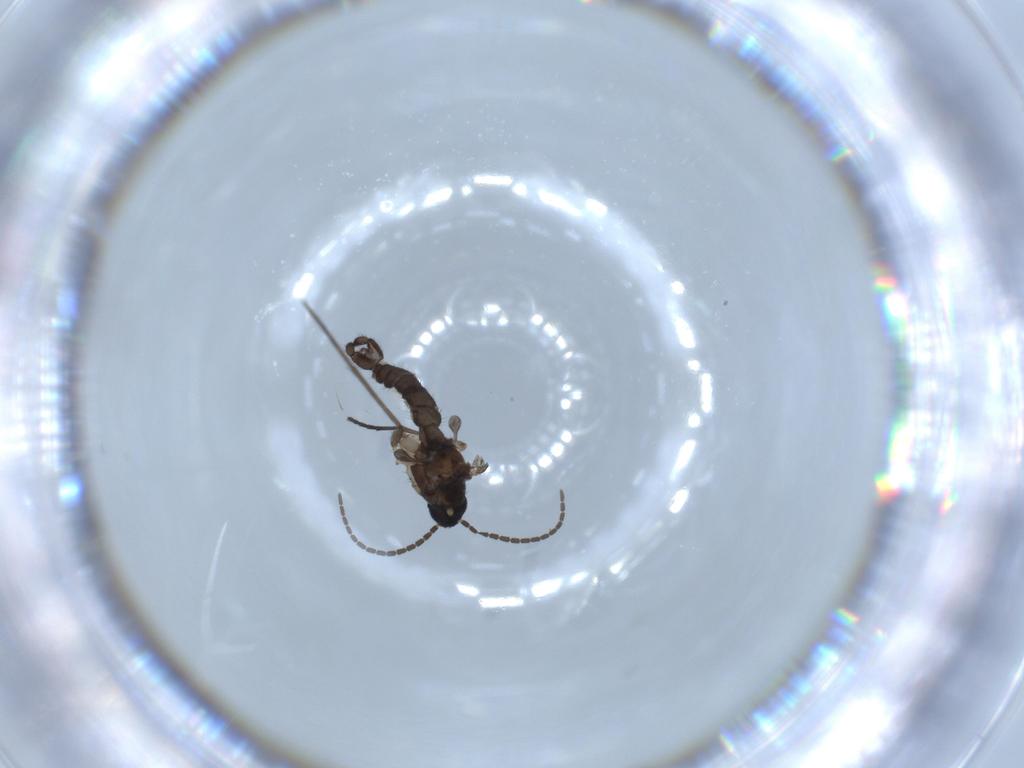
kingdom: Animalia
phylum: Arthropoda
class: Insecta
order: Diptera
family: Sciaridae
